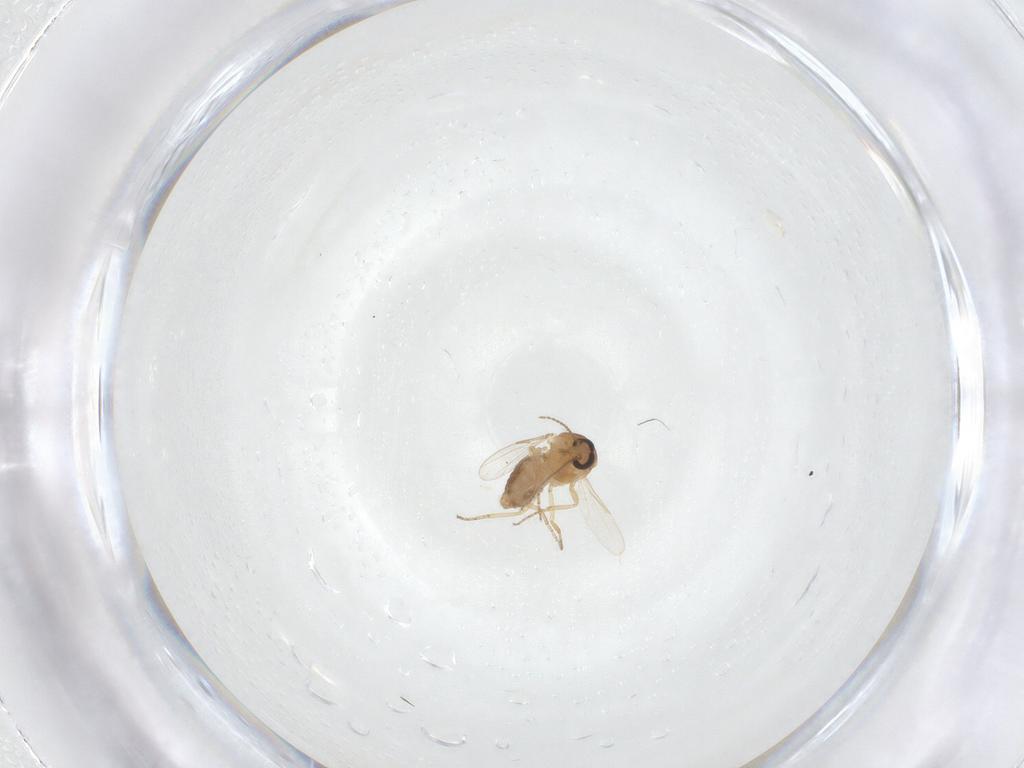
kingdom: Animalia
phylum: Arthropoda
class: Insecta
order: Diptera
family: Ceratopogonidae
